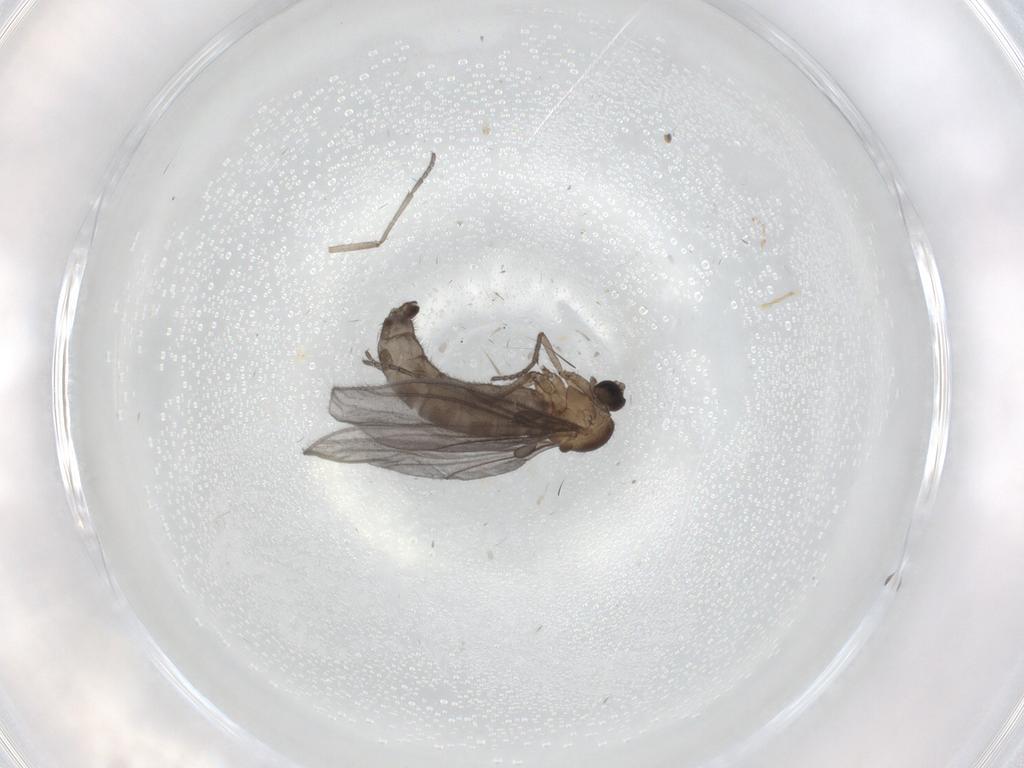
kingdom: Animalia
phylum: Arthropoda
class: Insecta
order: Diptera
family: Sciaridae
